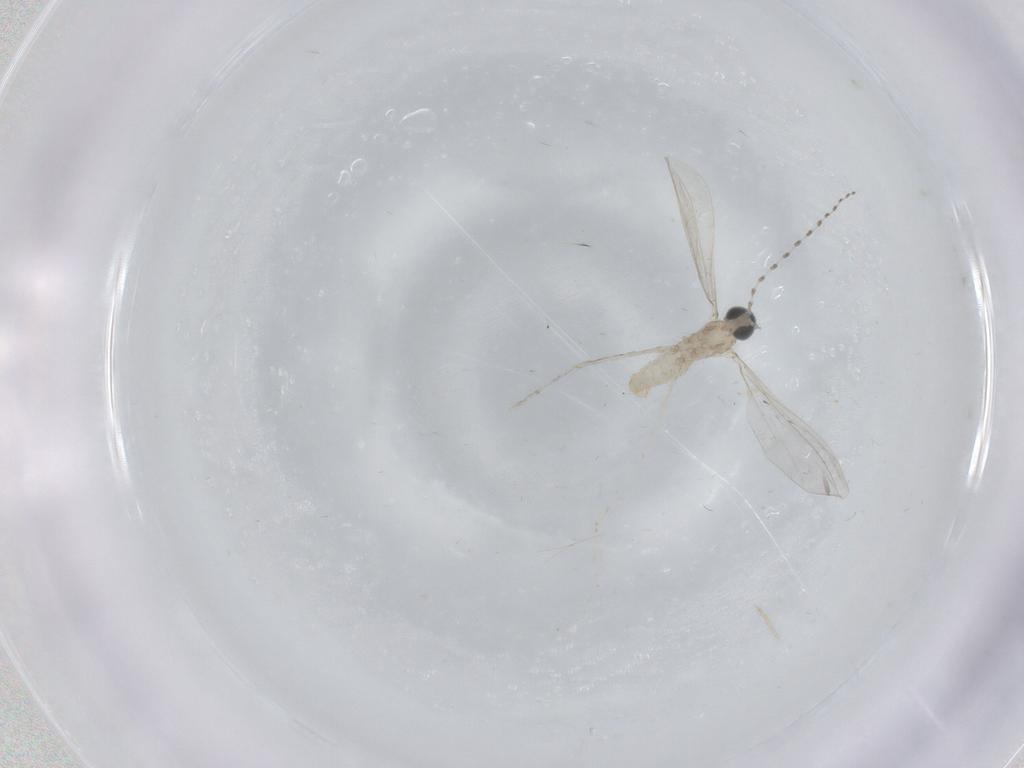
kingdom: Animalia
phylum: Arthropoda
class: Insecta
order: Diptera
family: Cecidomyiidae
